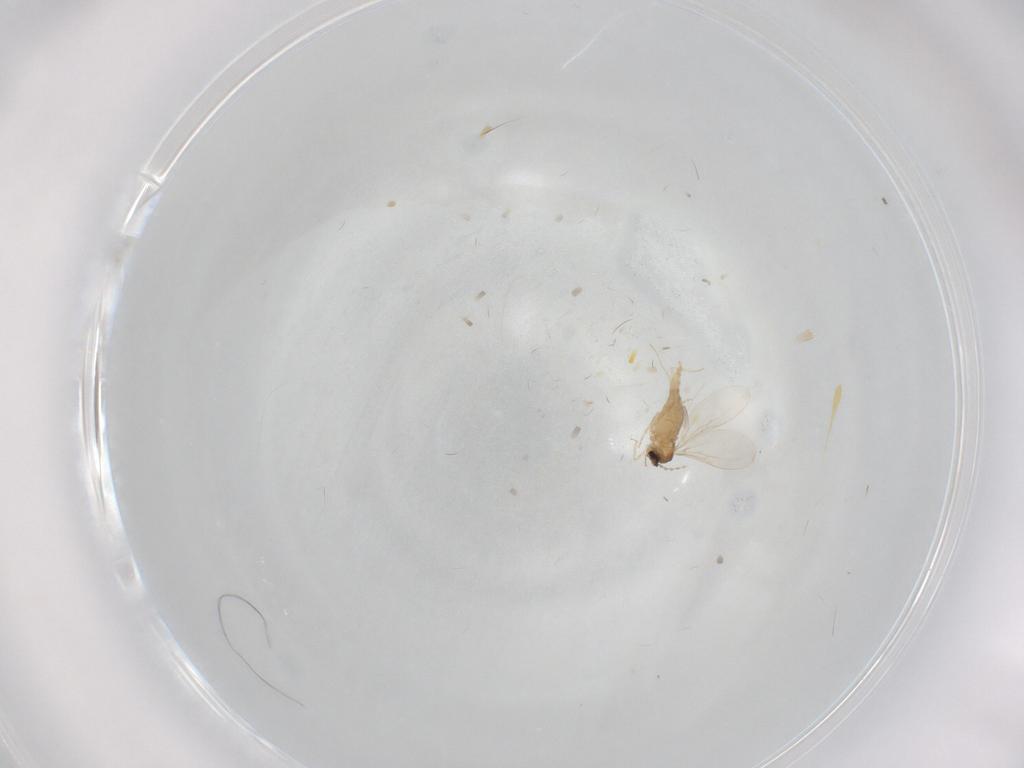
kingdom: Animalia
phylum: Arthropoda
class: Insecta
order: Diptera
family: Cecidomyiidae
